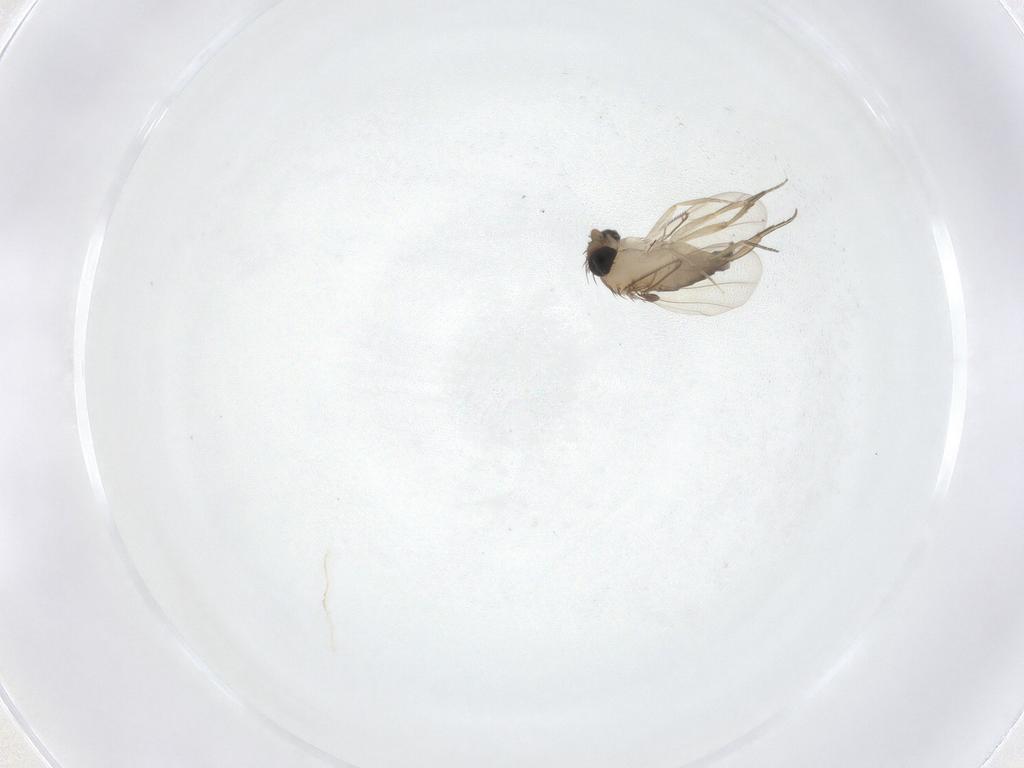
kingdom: Animalia
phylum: Arthropoda
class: Insecta
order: Diptera
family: Phoridae
